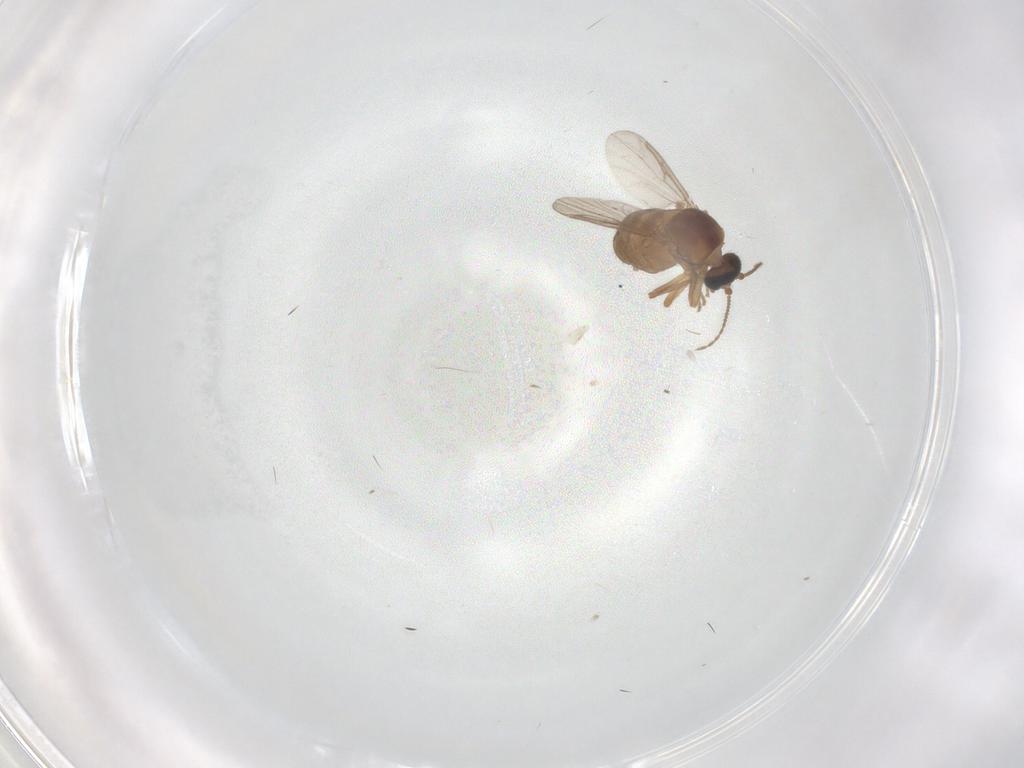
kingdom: Animalia
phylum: Arthropoda
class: Insecta
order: Diptera
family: Ceratopogonidae
